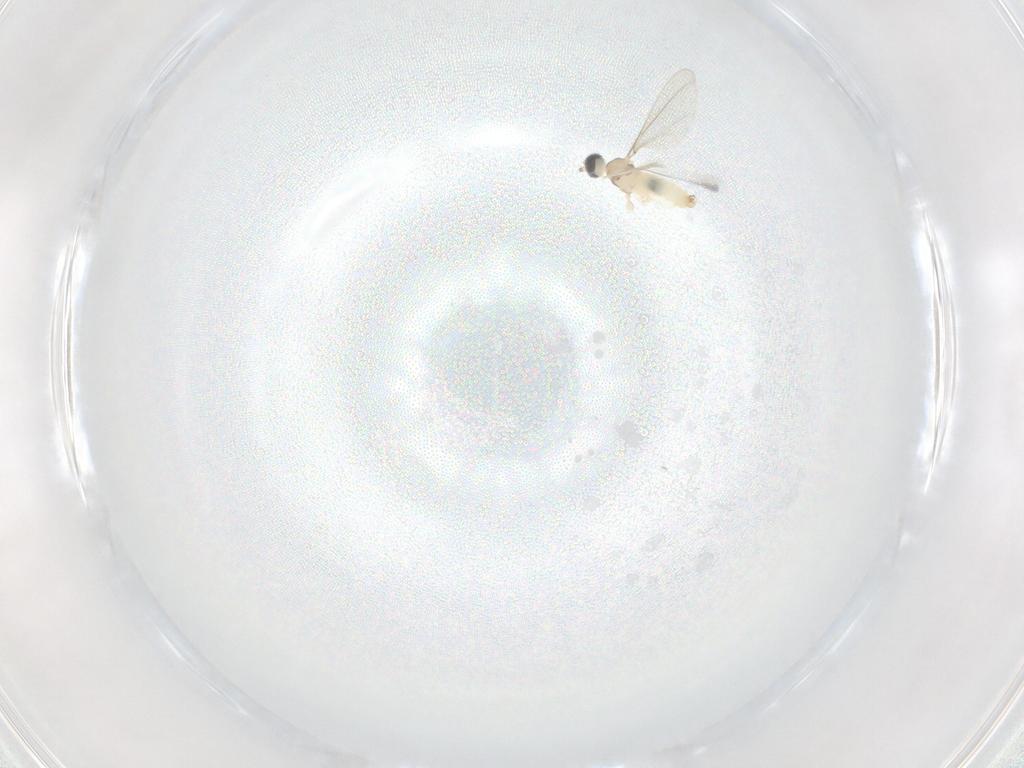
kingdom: Animalia
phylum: Arthropoda
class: Insecta
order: Diptera
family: Cecidomyiidae
